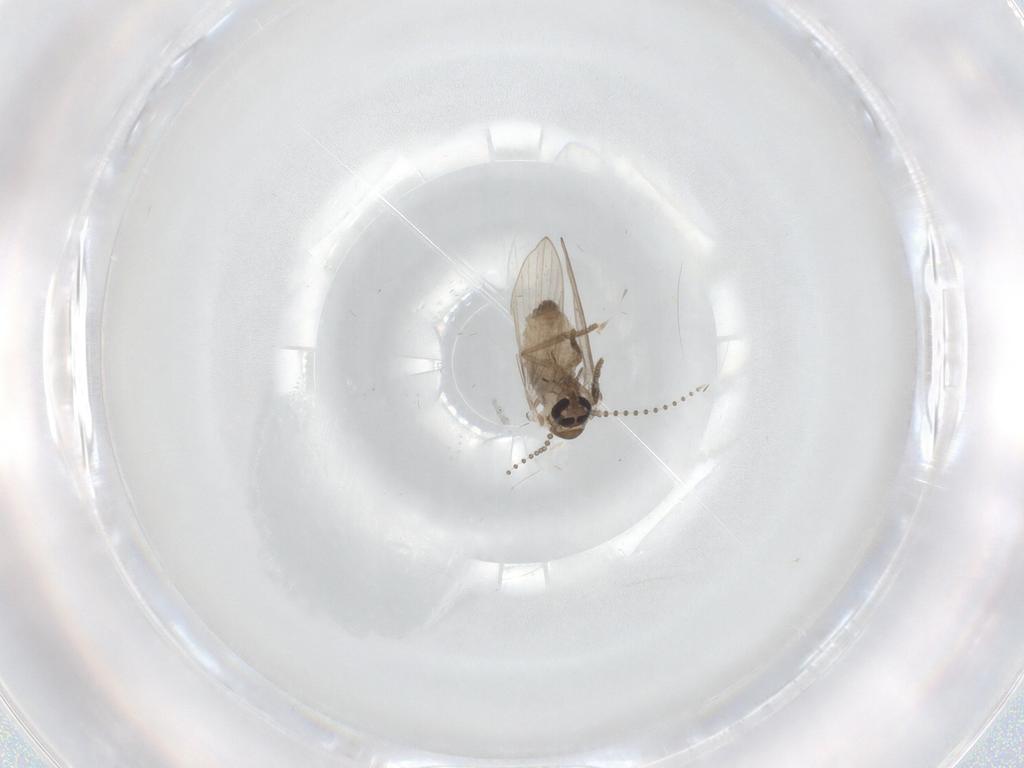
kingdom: Animalia
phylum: Arthropoda
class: Insecta
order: Diptera
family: Psychodidae
